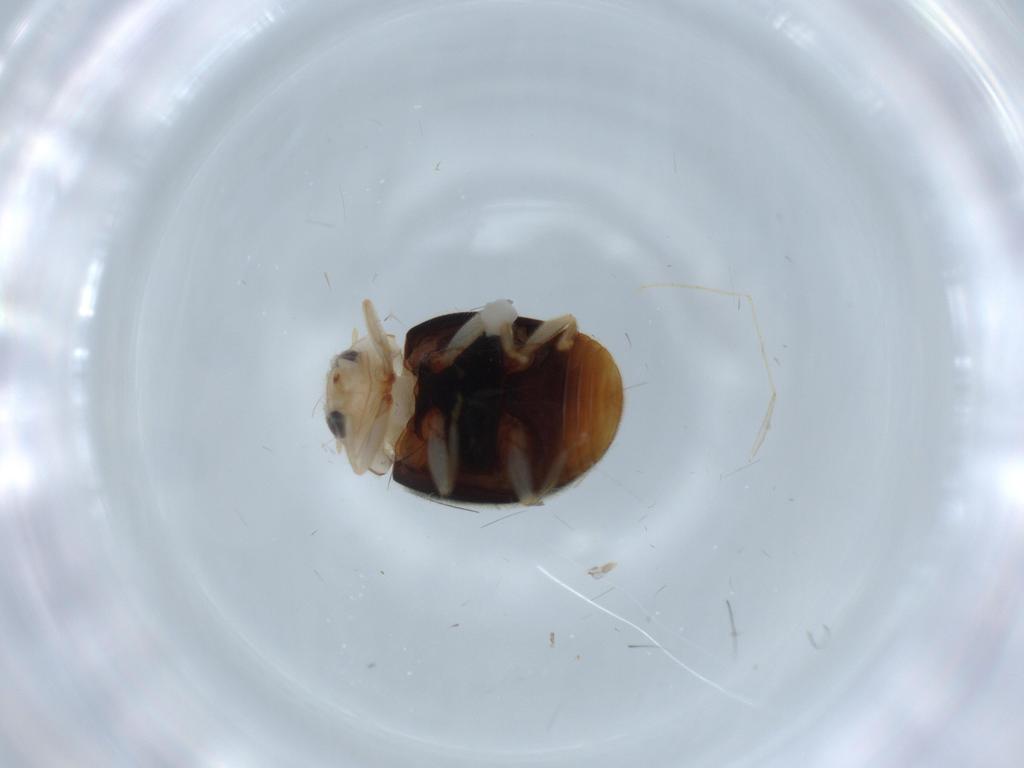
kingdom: Animalia
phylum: Arthropoda
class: Insecta
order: Coleoptera
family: Coccinellidae
